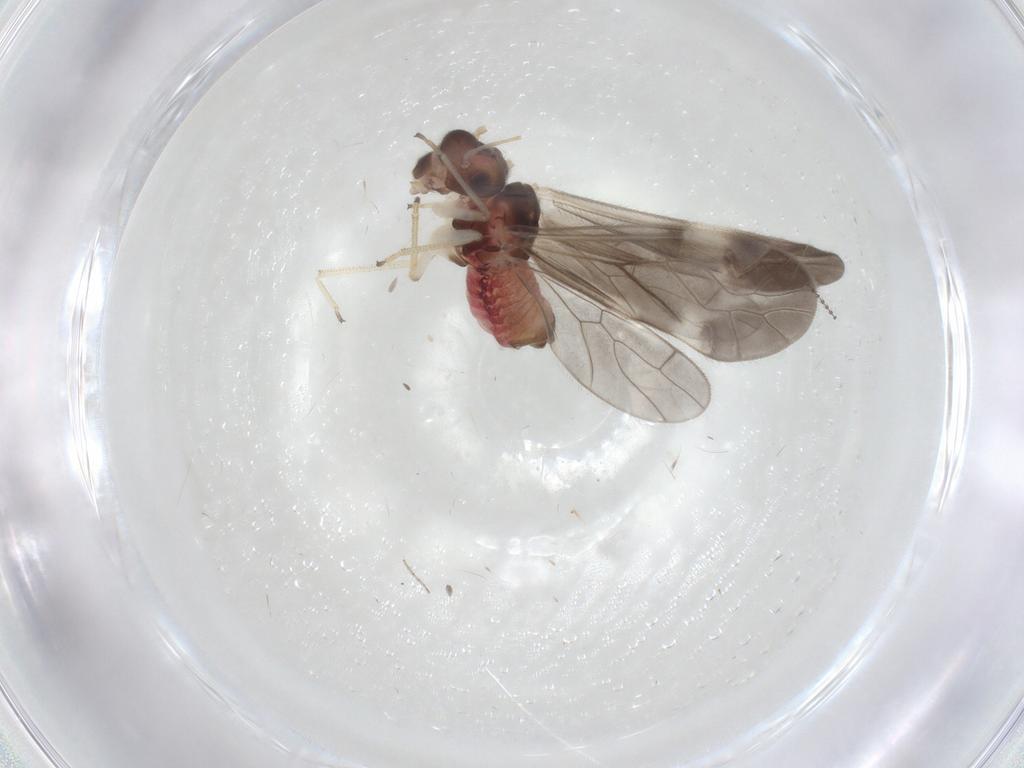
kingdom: Animalia
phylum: Arthropoda
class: Insecta
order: Psocodea
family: Caeciliusidae
